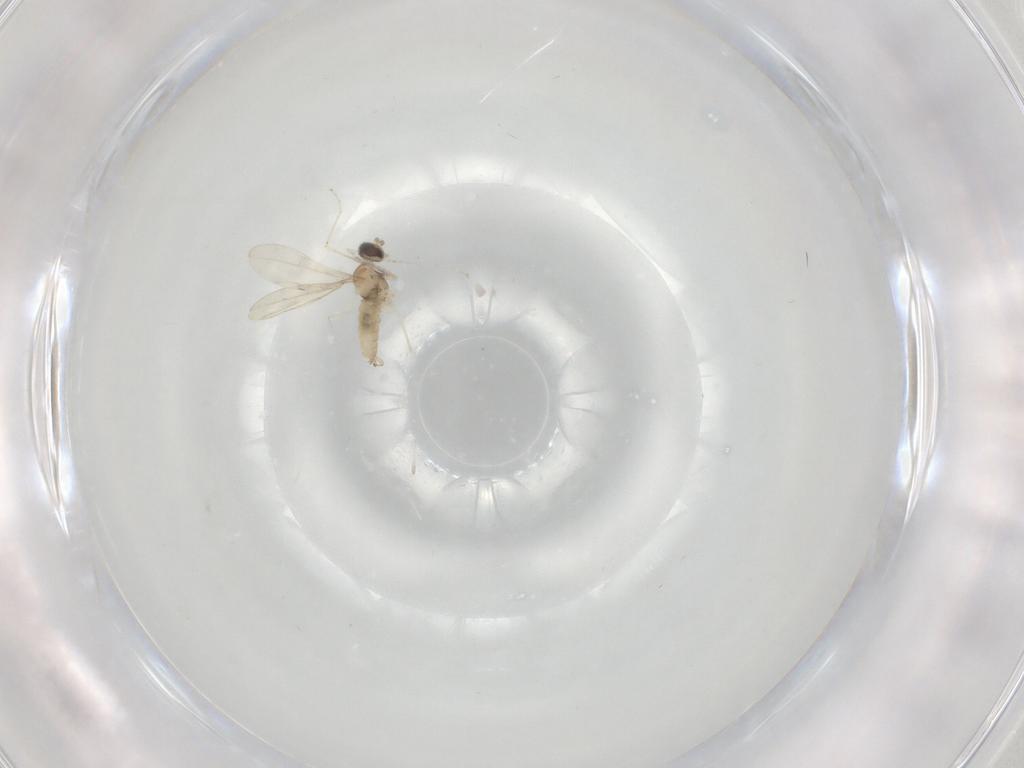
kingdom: Animalia
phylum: Arthropoda
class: Insecta
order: Diptera
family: Cecidomyiidae
